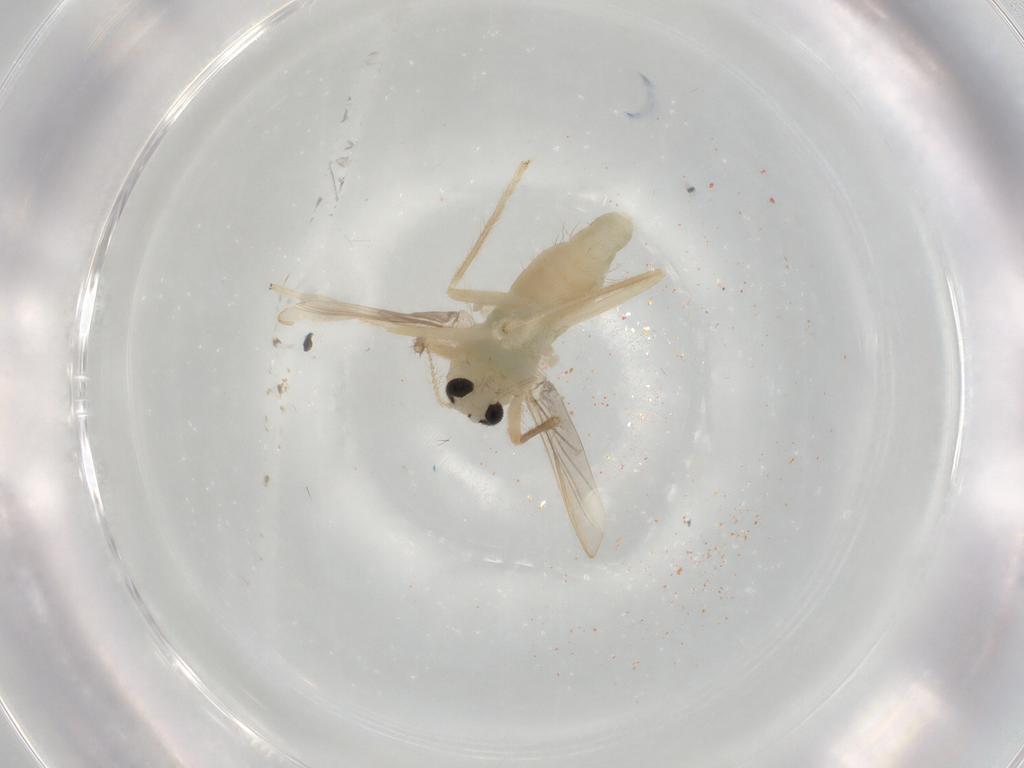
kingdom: Animalia
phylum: Arthropoda
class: Insecta
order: Diptera
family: Chironomidae
